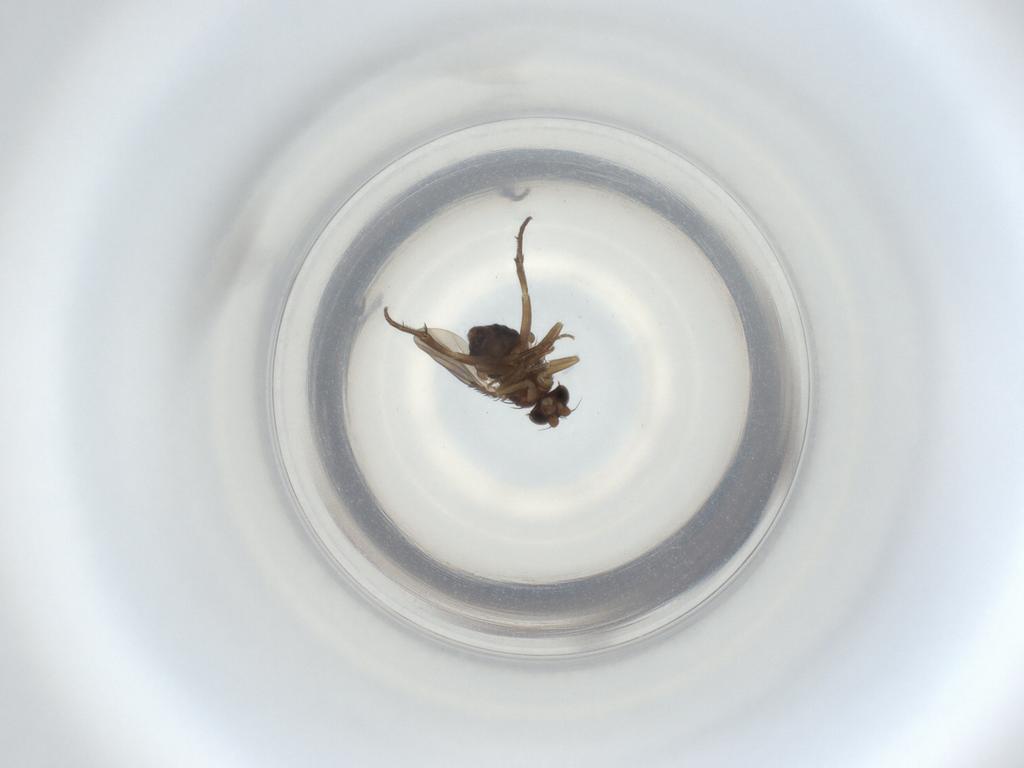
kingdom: Animalia
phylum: Arthropoda
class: Insecta
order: Diptera
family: Phoridae
